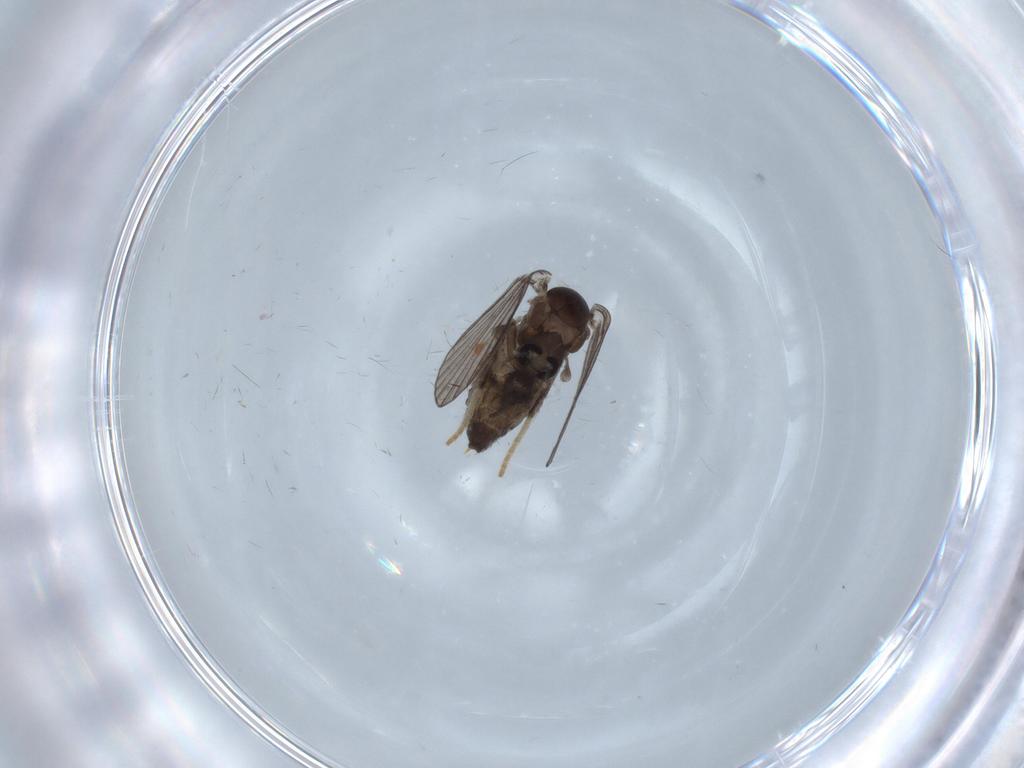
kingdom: Animalia
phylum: Arthropoda
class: Insecta
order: Diptera
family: Psychodidae
